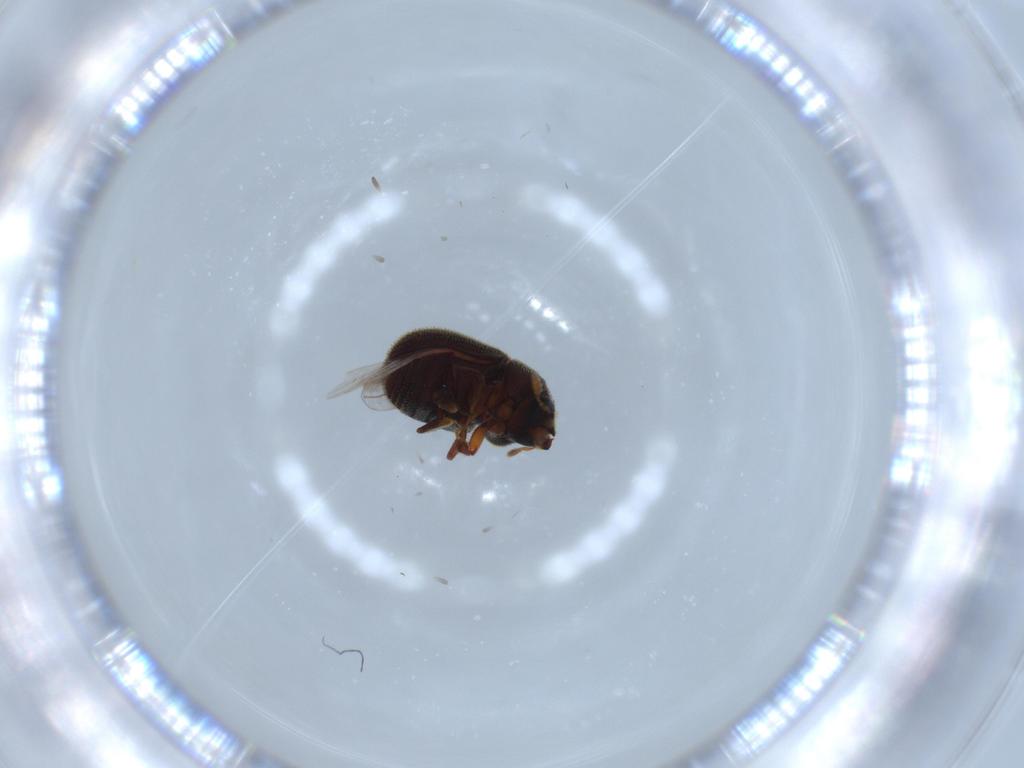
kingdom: Animalia
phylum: Arthropoda
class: Insecta
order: Coleoptera
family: Cleridae
